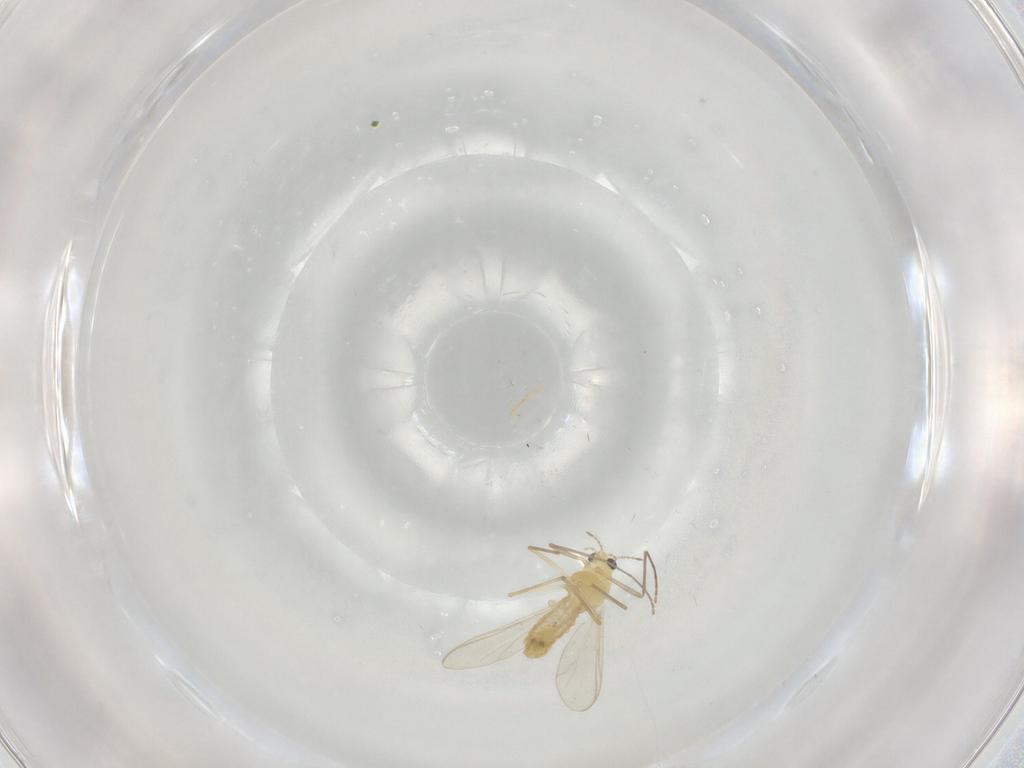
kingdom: Animalia
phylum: Arthropoda
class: Insecta
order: Diptera
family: Chironomidae
